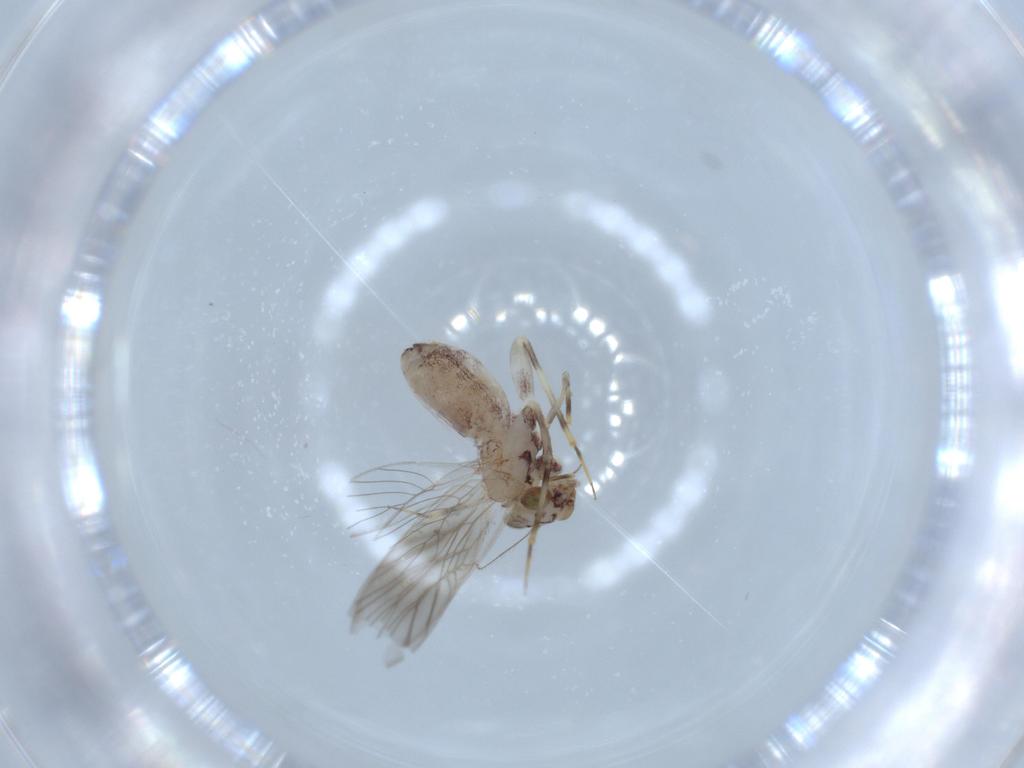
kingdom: Animalia
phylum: Arthropoda
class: Insecta
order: Psocodea
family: Lepidopsocidae
